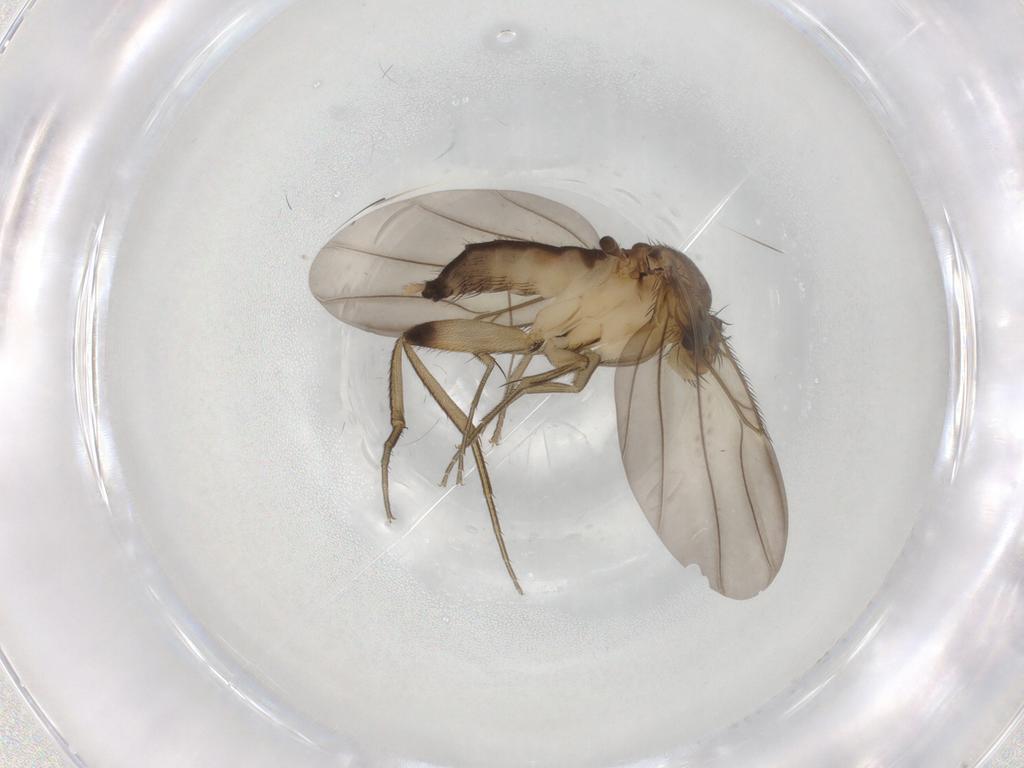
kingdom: Animalia
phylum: Arthropoda
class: Insecta
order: Diptera
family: Phoridae
